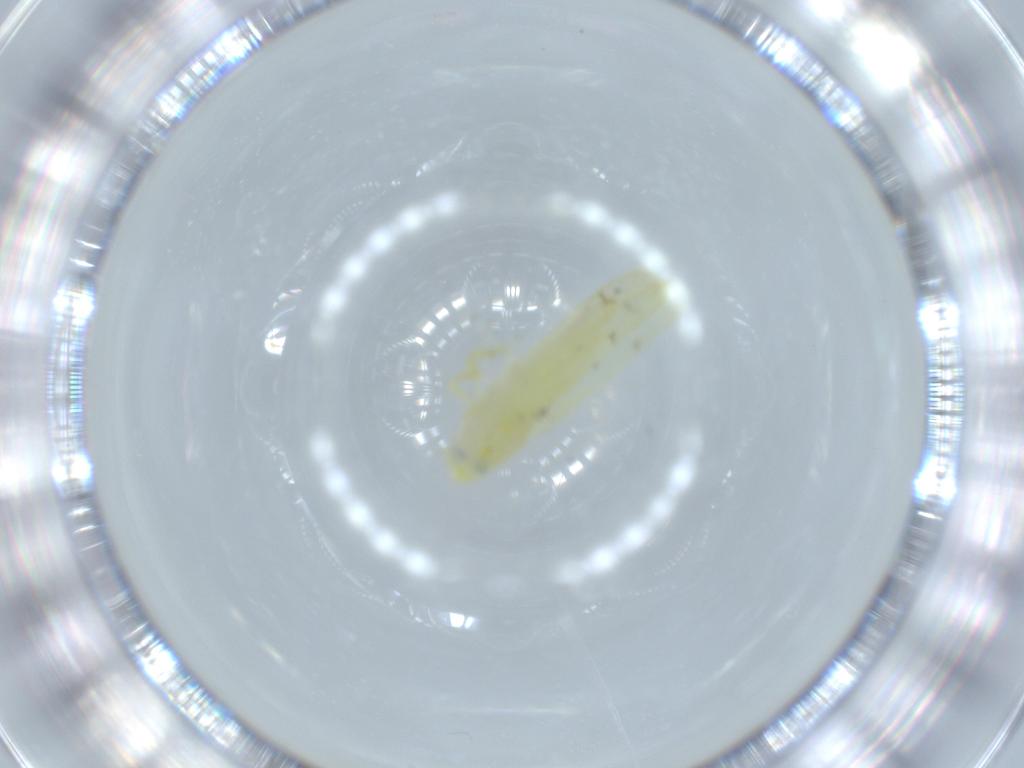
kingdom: Animalia
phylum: Arthropoda
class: Insecta
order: Hemiptera
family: Cicadellidae
